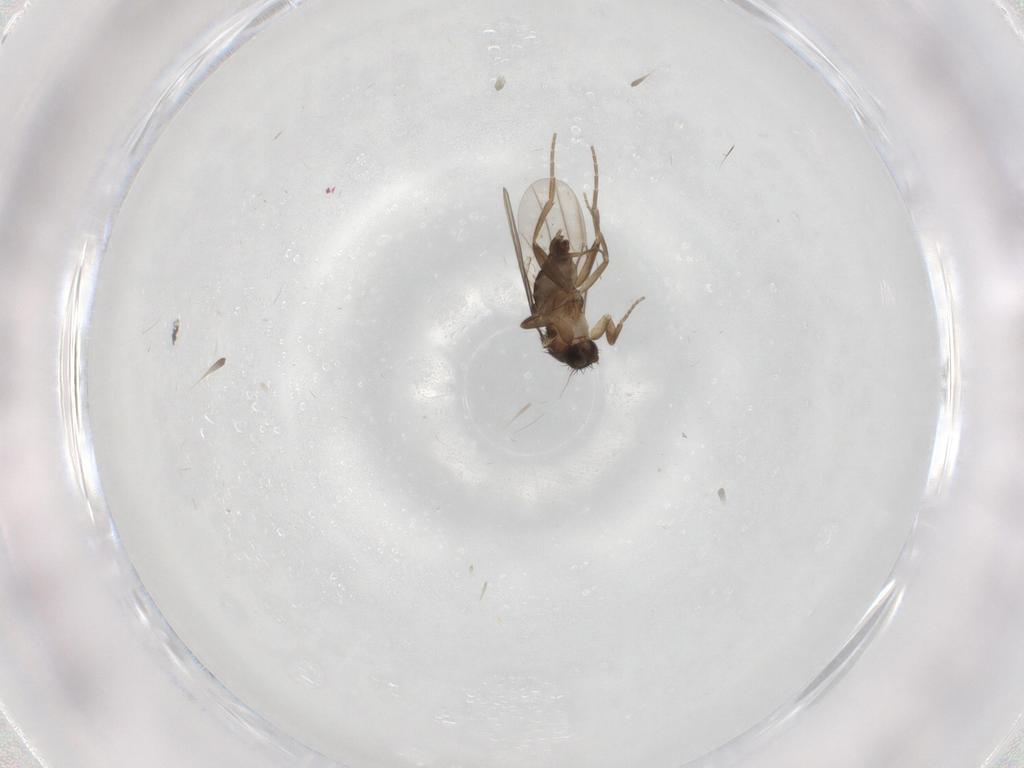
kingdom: Animalia
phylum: Arthropoda
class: Insecta
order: Diptera
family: Phoridae
